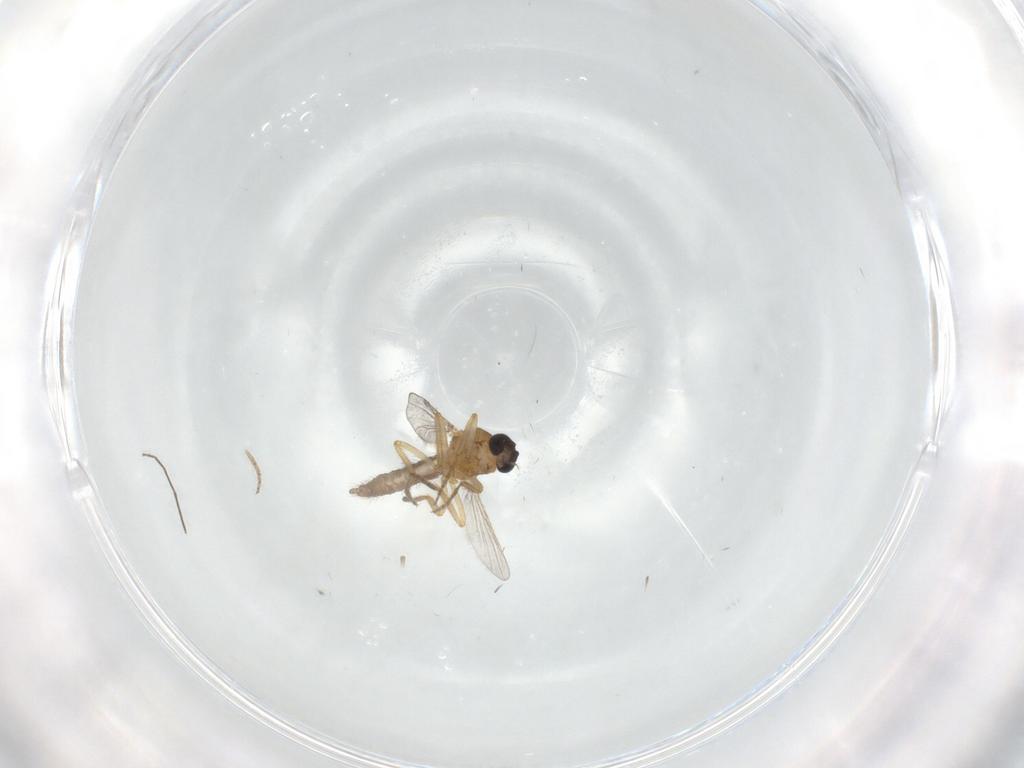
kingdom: Animalia
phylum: Arthropoda
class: Insecta
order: Diptera
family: Ceratopogonidae
